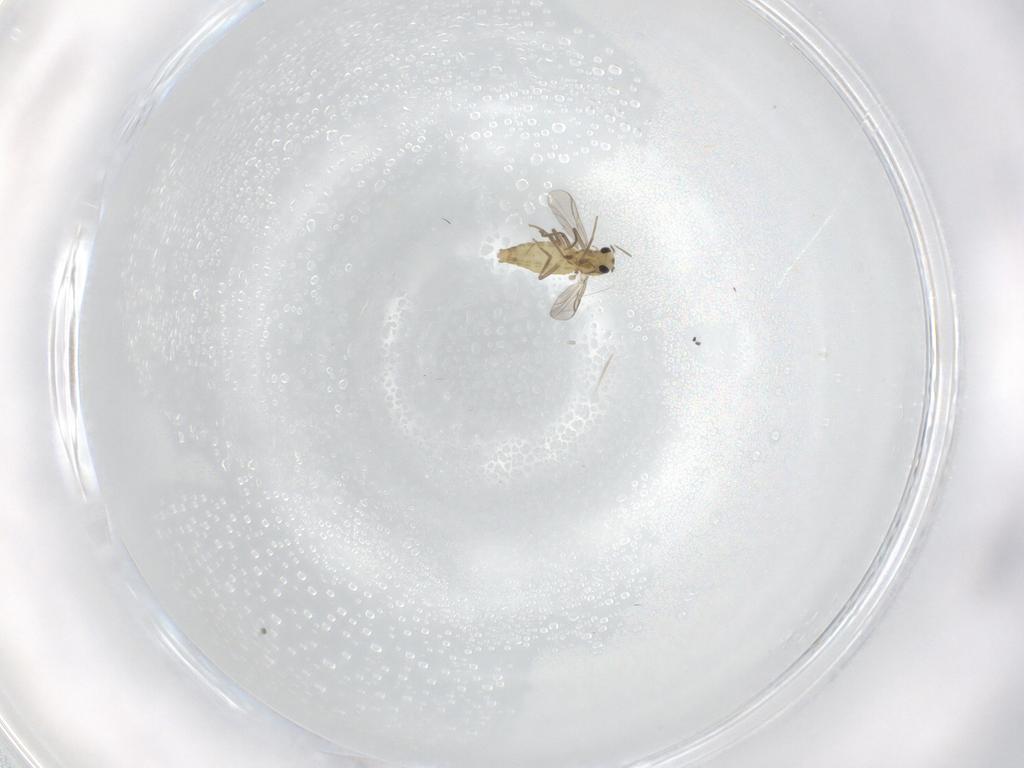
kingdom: Animalia
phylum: Arthropoda
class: Insecta
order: Diptera
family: Chironomidae
